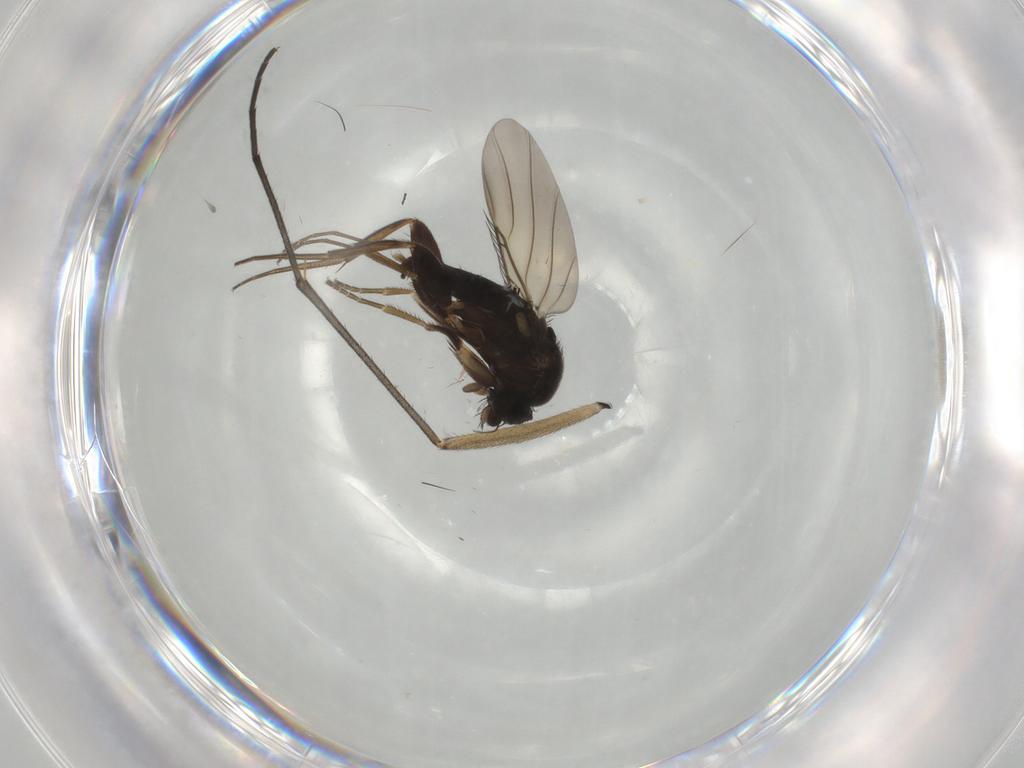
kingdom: Animalia
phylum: Arthropoda
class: Insecta
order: Diptera
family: Phoridae
